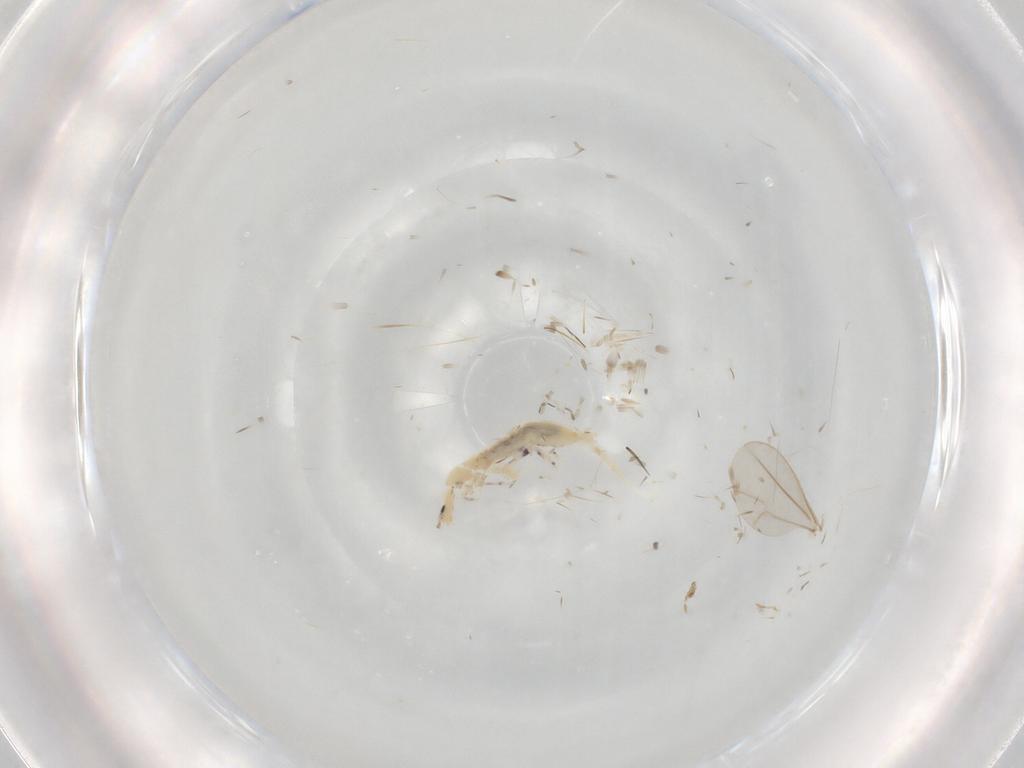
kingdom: Animalia
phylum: Arthropoda
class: Collembola
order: Entomobryomorpha
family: Entomobryidae
